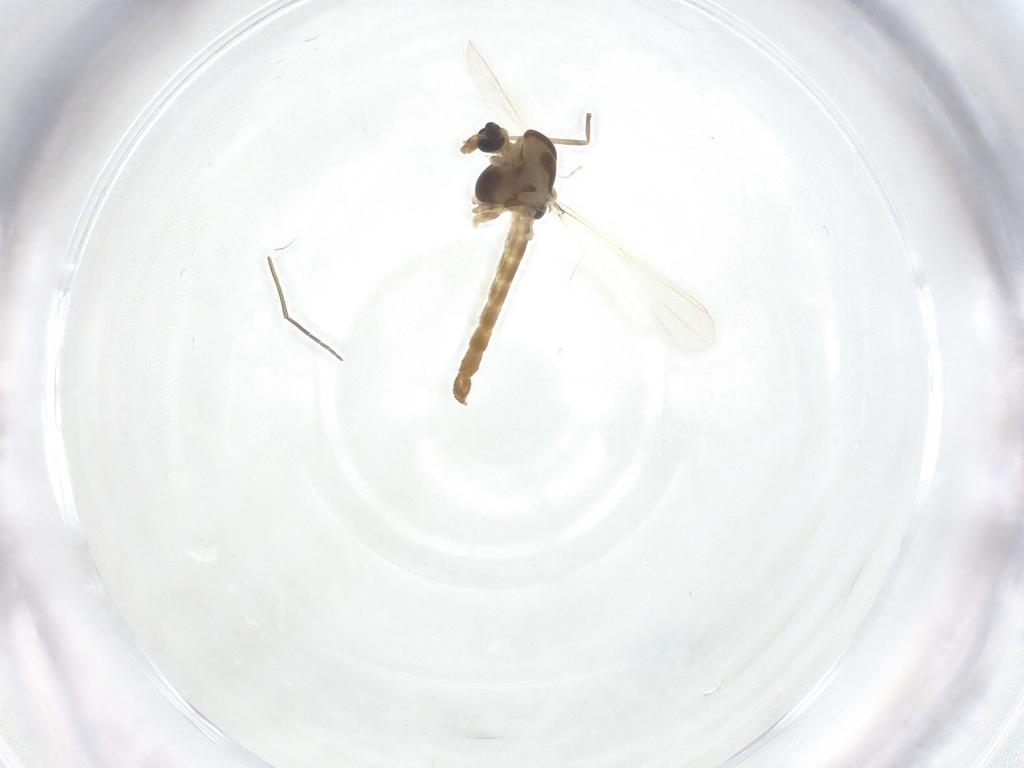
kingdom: Animalia
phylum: Arthropoda
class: Insecta
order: Diptera
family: Chironomidae
